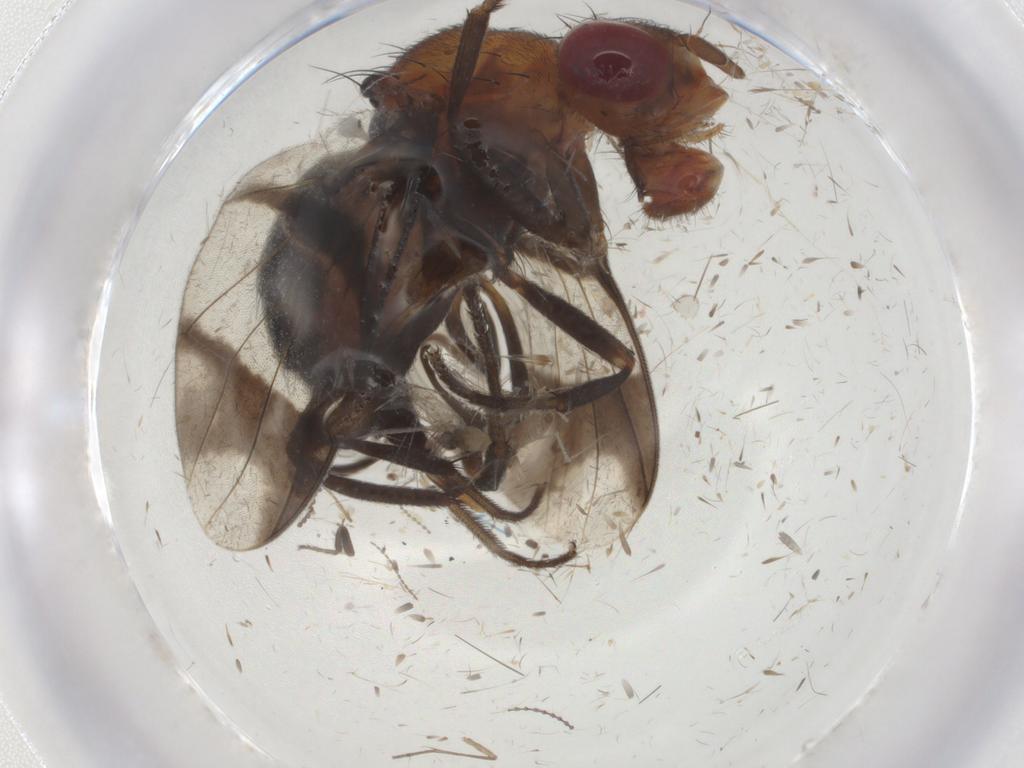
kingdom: Animalia
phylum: Arthropoda
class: Insecta
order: Diptera
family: Richardiidae
